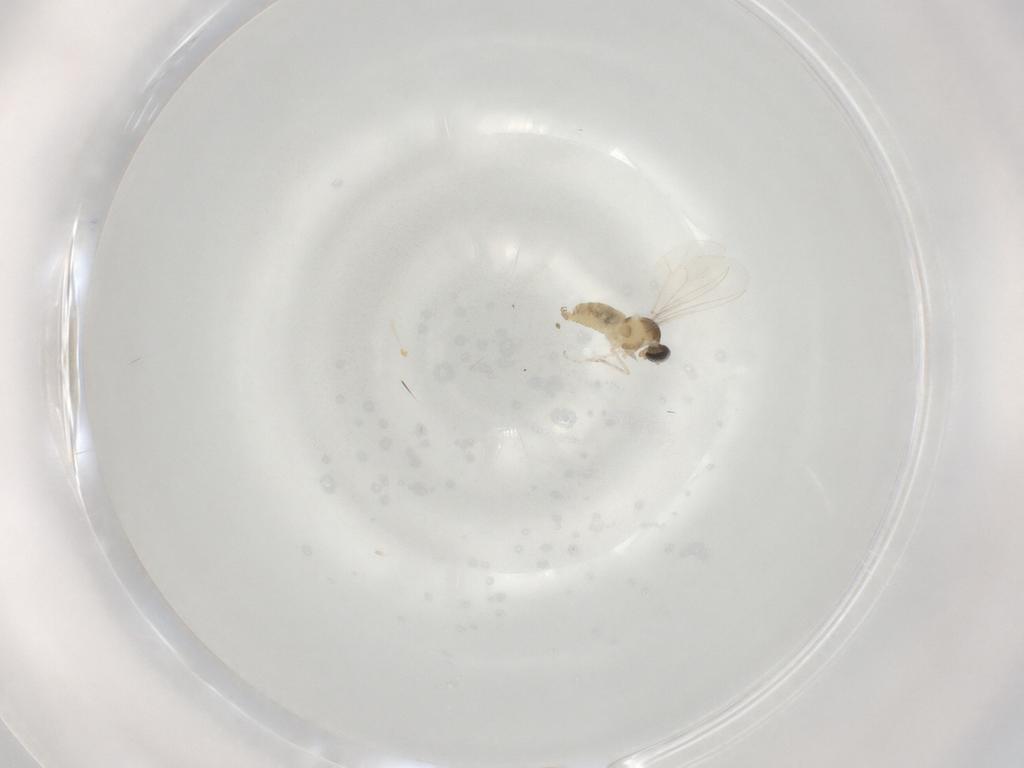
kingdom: Animalia
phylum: Arthropoda
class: Insecta
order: Diptera
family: Cecidomyiidae
